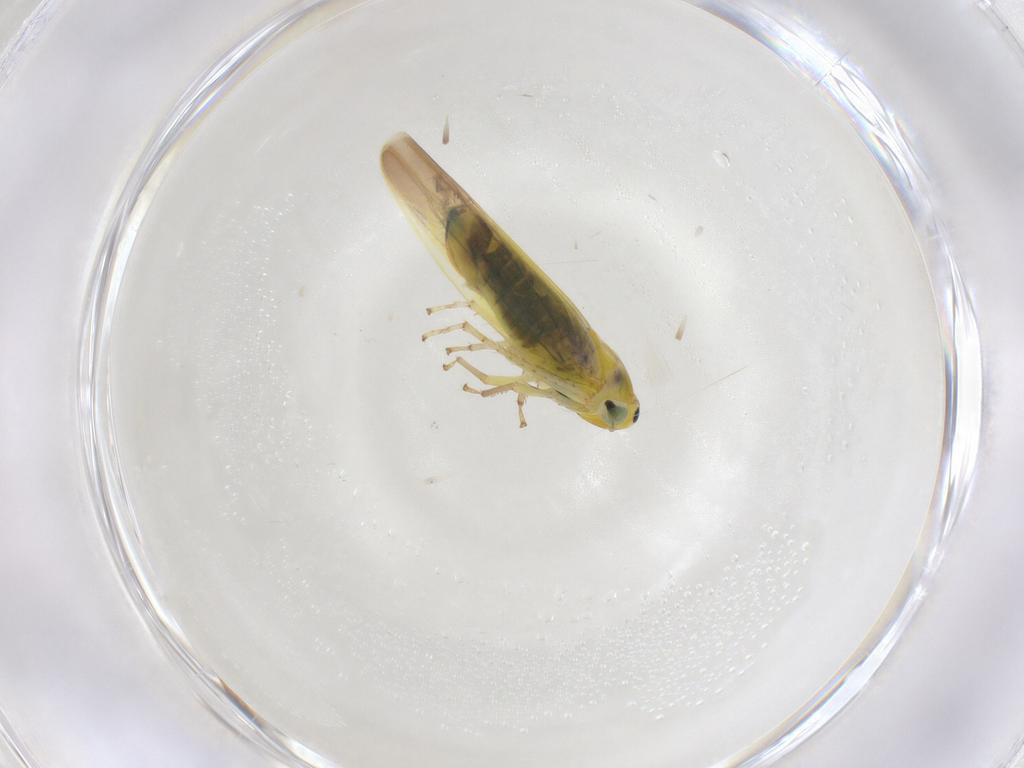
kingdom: Animalia
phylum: Arthropoda
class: Insecta
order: Hemiptera
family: Cicadellidae
